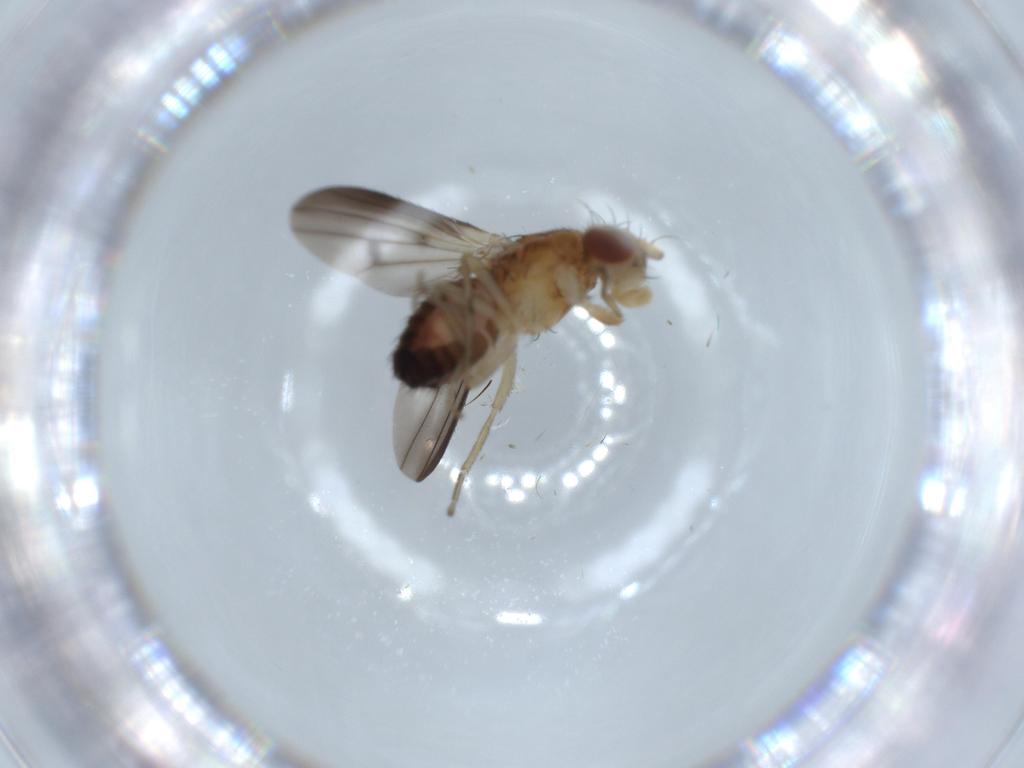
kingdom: Animalia
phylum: Arthropoda
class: Insecta
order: Diptera
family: Heleomyzidae
